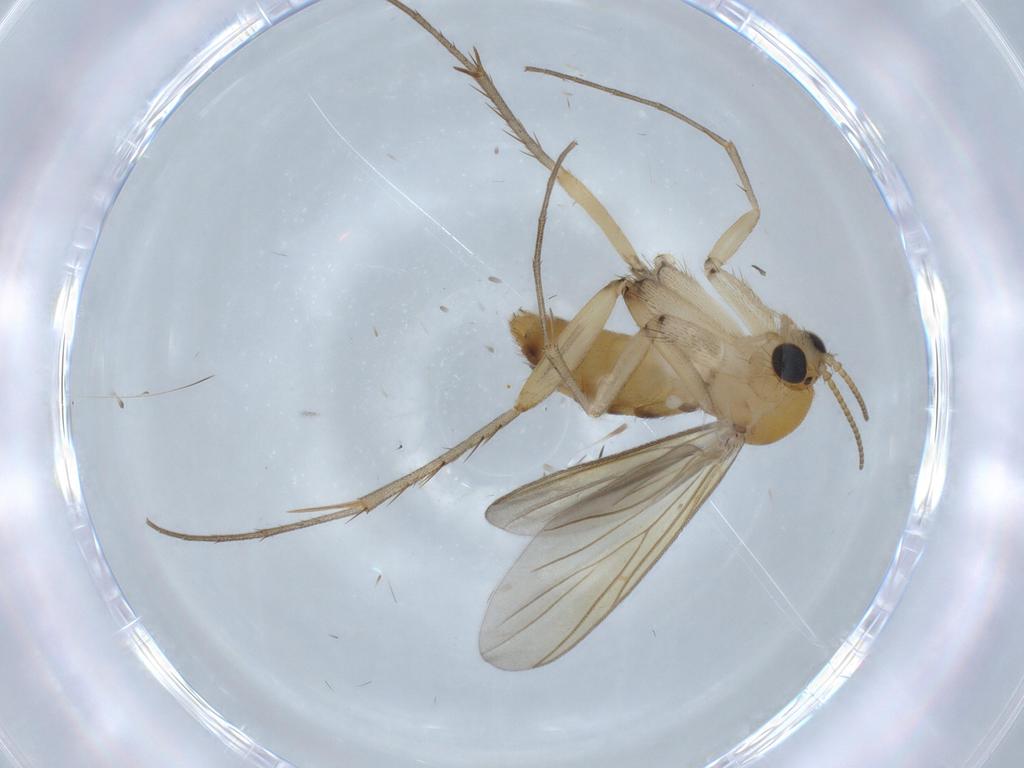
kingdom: Animalia
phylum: Arthropoda
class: Insecta
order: Diptera
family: Mycetophilidae
